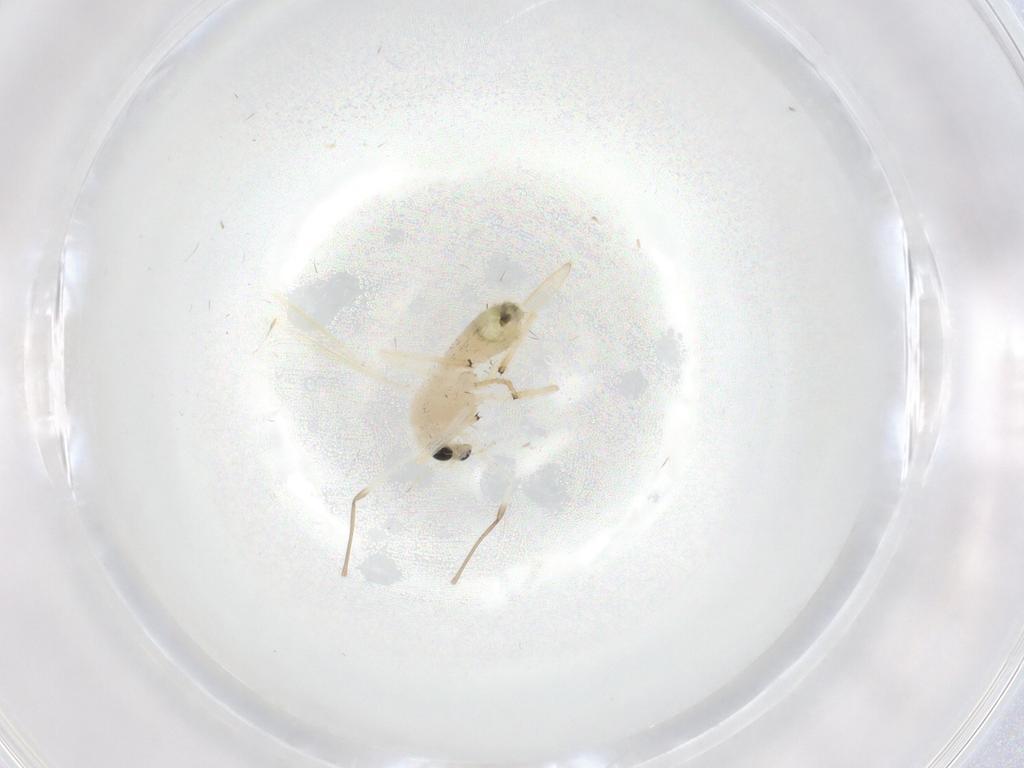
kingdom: Animalia
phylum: Arthropoda
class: Insecta
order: Diptera
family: Chironomidae
